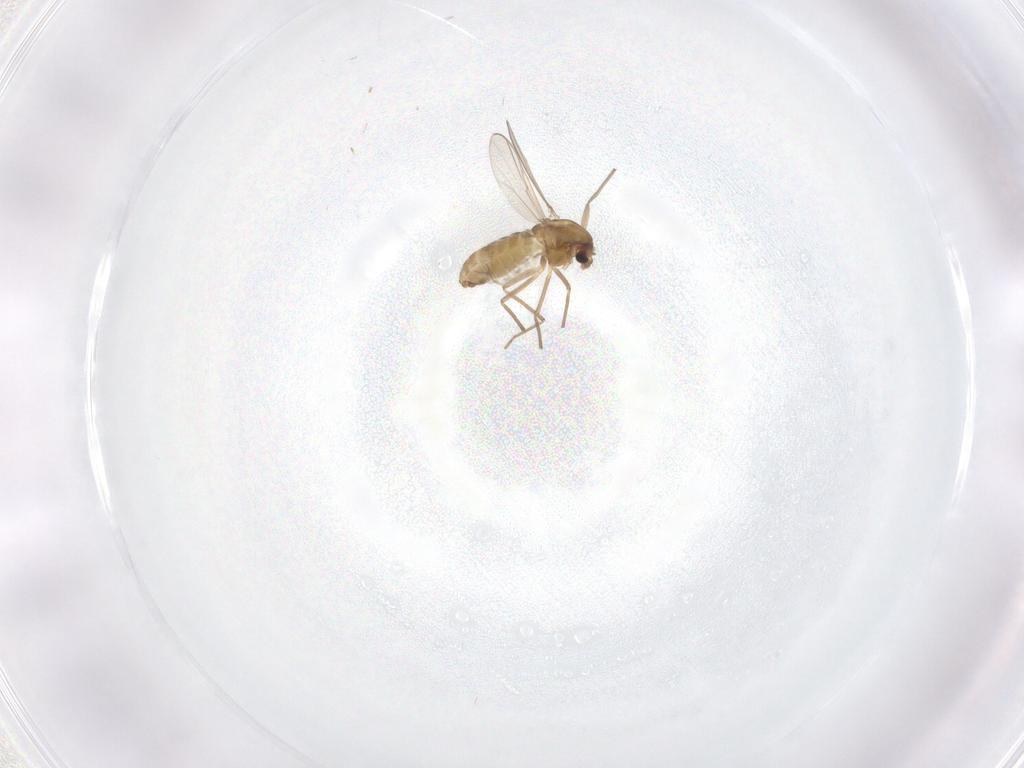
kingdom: Animalia
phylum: Arthropoda
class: Insecta
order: Diptera
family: Chironomidae
